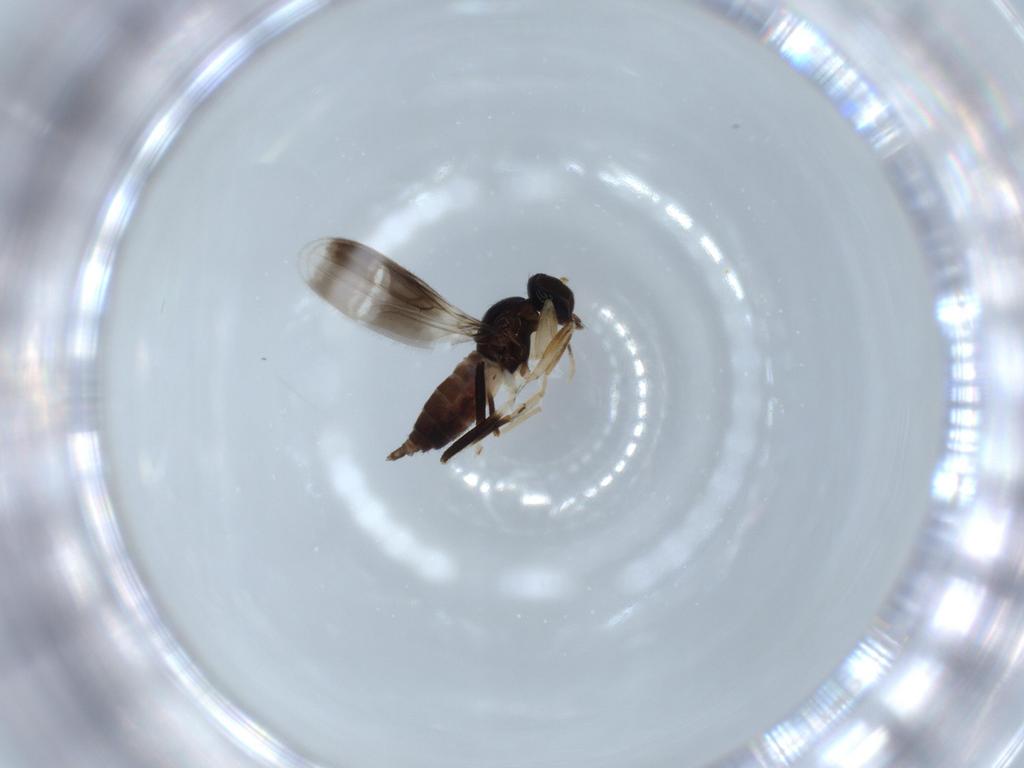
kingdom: Animalia
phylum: Arthropoda
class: Insecta
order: Diptera
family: Hybotidae
